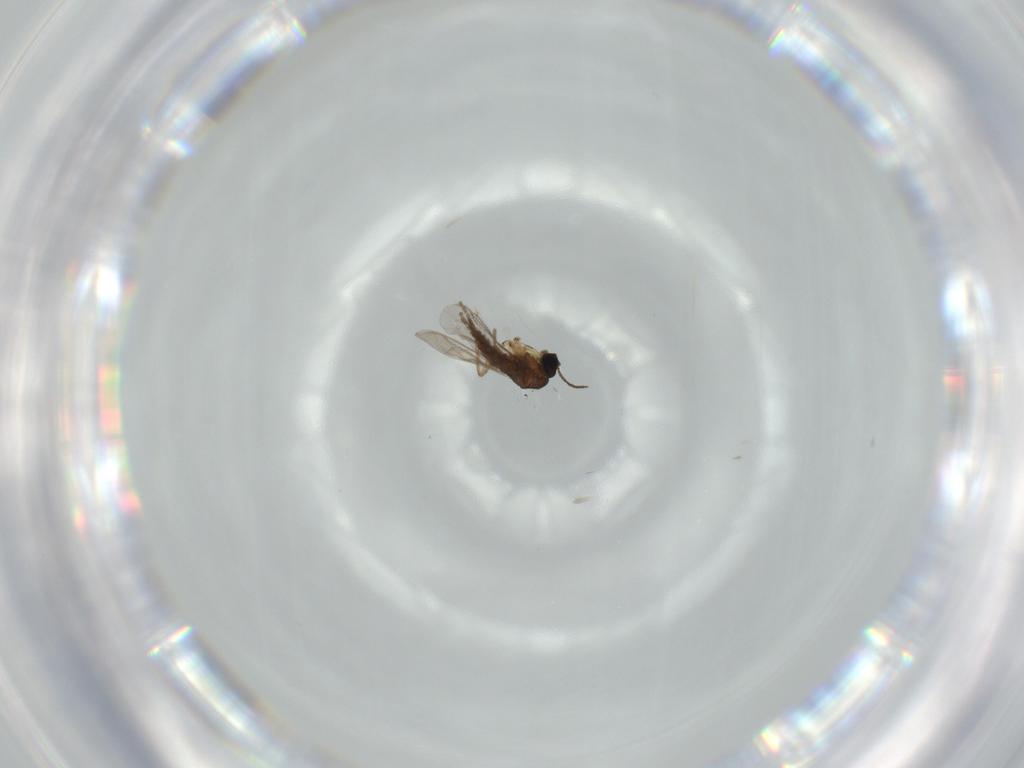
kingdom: Animalia
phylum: Arthropoda
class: Insecta
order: Diptera
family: Sciaridae
